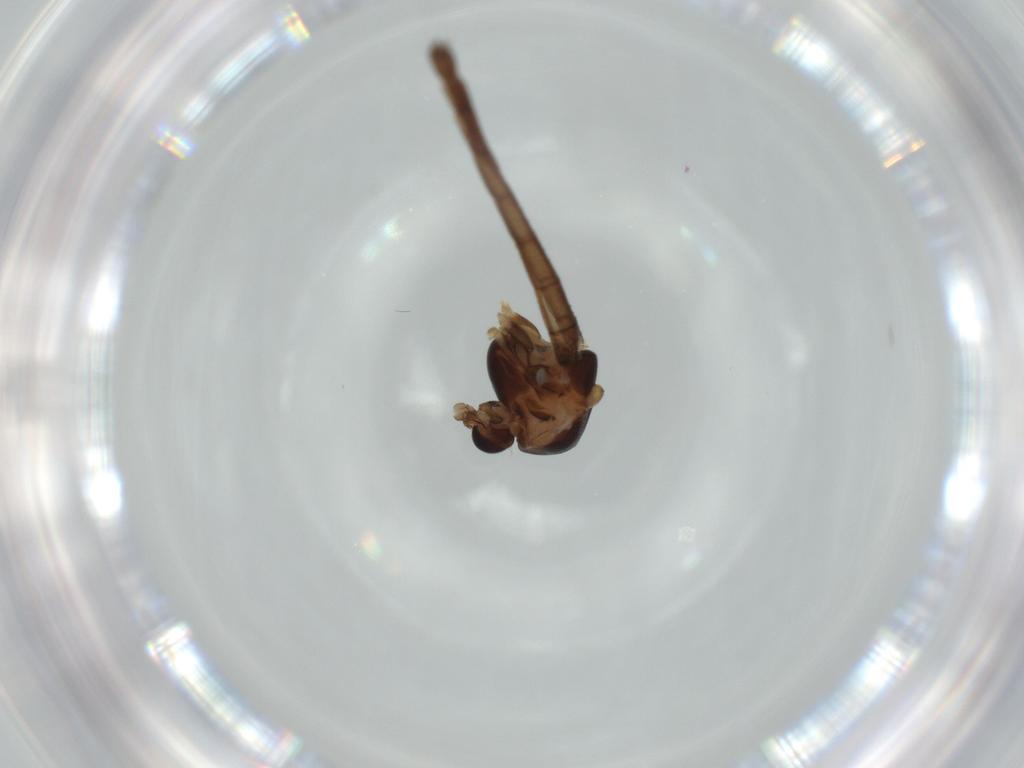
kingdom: Animalia
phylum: Arthropoda
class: Insecta
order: Diptera
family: Chironomidae
